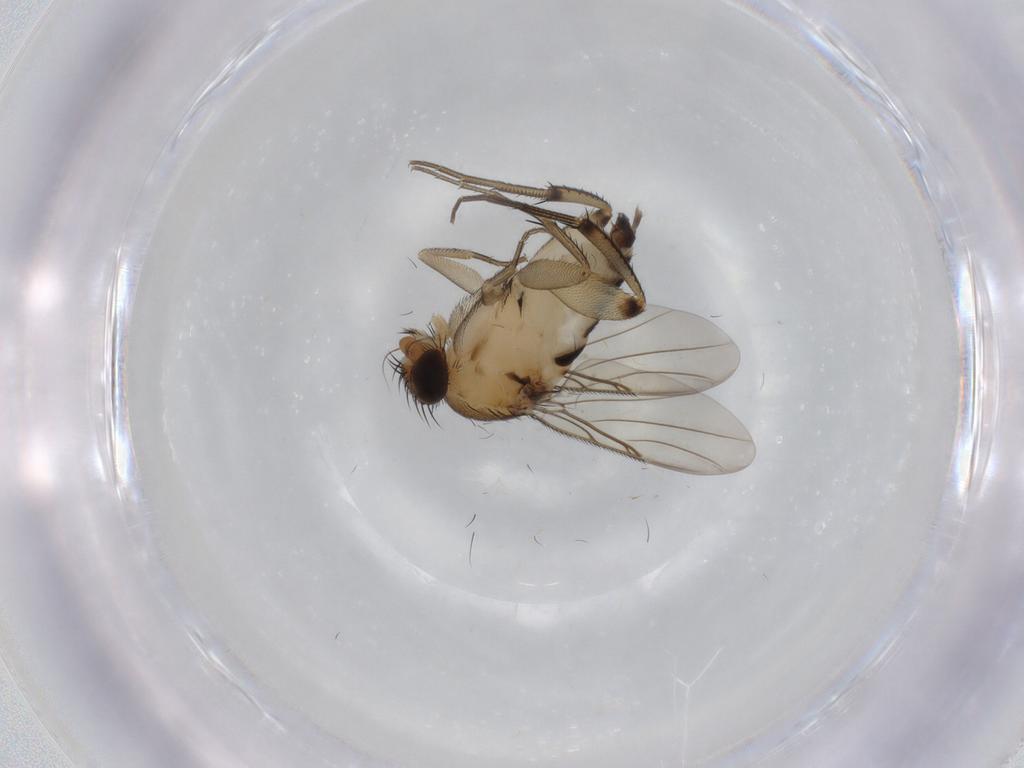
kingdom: Animalia
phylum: Arthropoda
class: Insecta
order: Diptera
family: Phoridae
